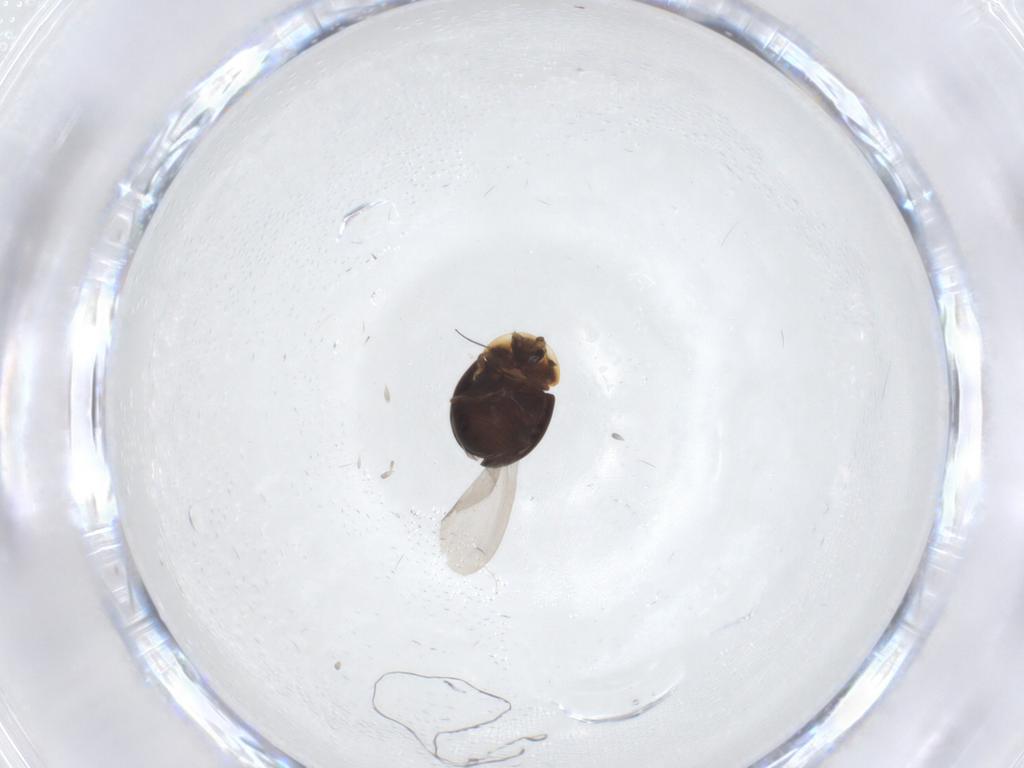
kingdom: Animalia
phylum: Arthropoda
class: Insecta
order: Coleoptera
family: Corylophidae
